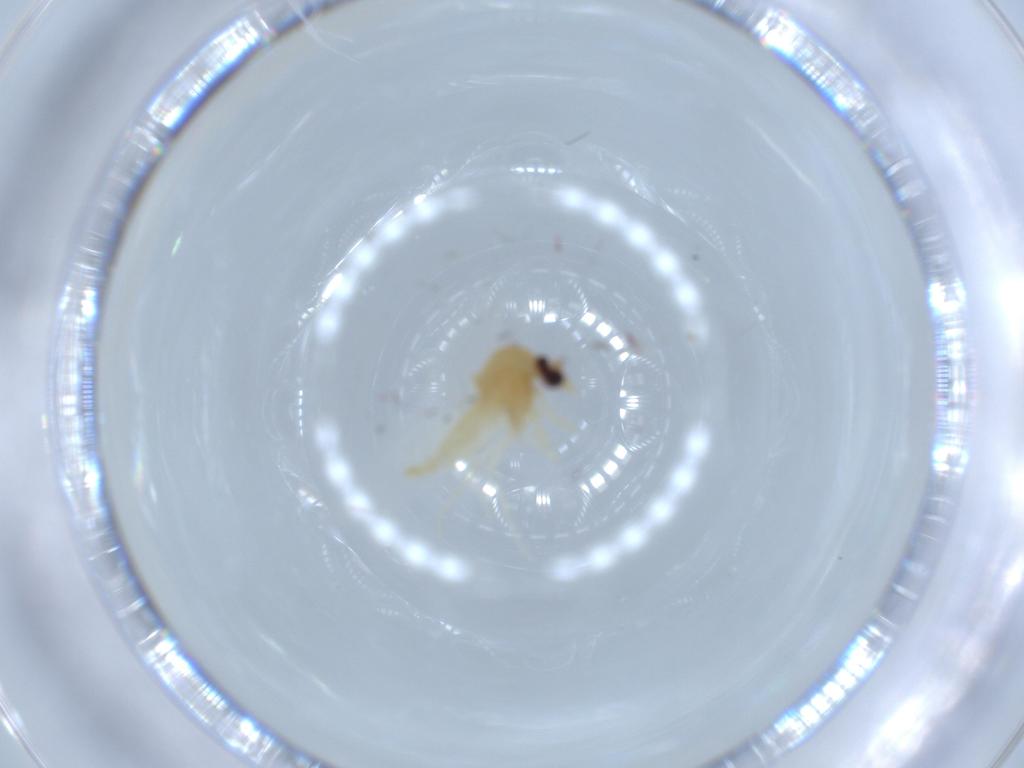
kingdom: Animalia
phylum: Arthropoda
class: Insecta
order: Diptera
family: Cecidomyiidae
